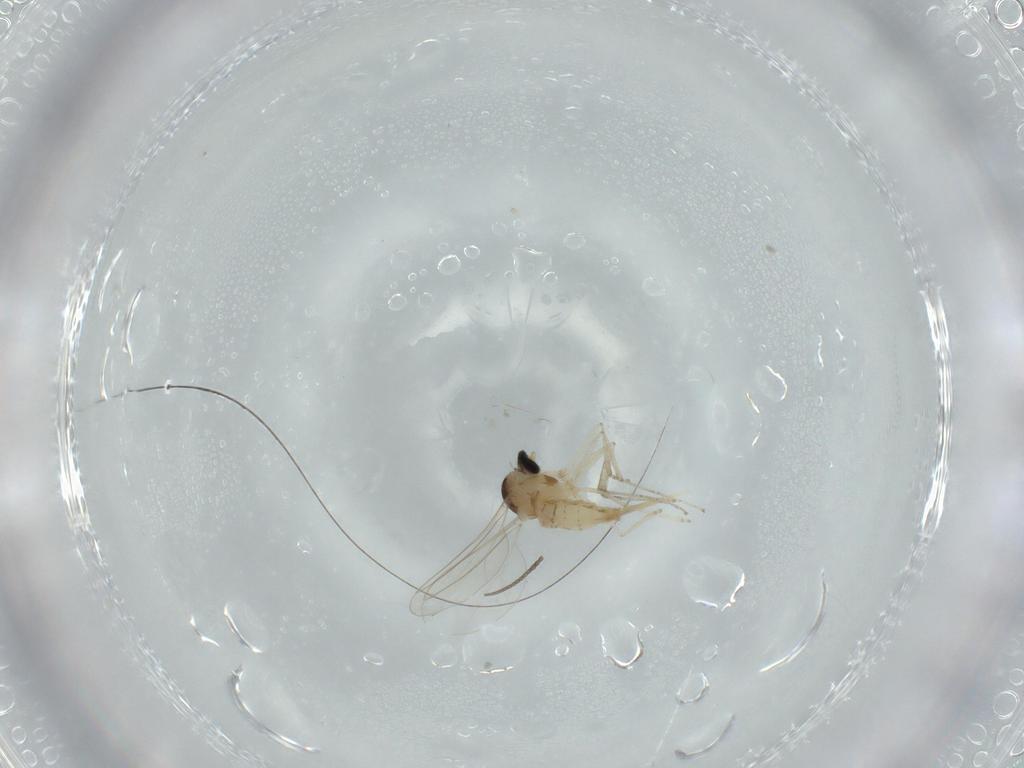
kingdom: Animalia
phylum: Arthropoda
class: Insecta
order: Diptera
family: Cecidomyiidae
